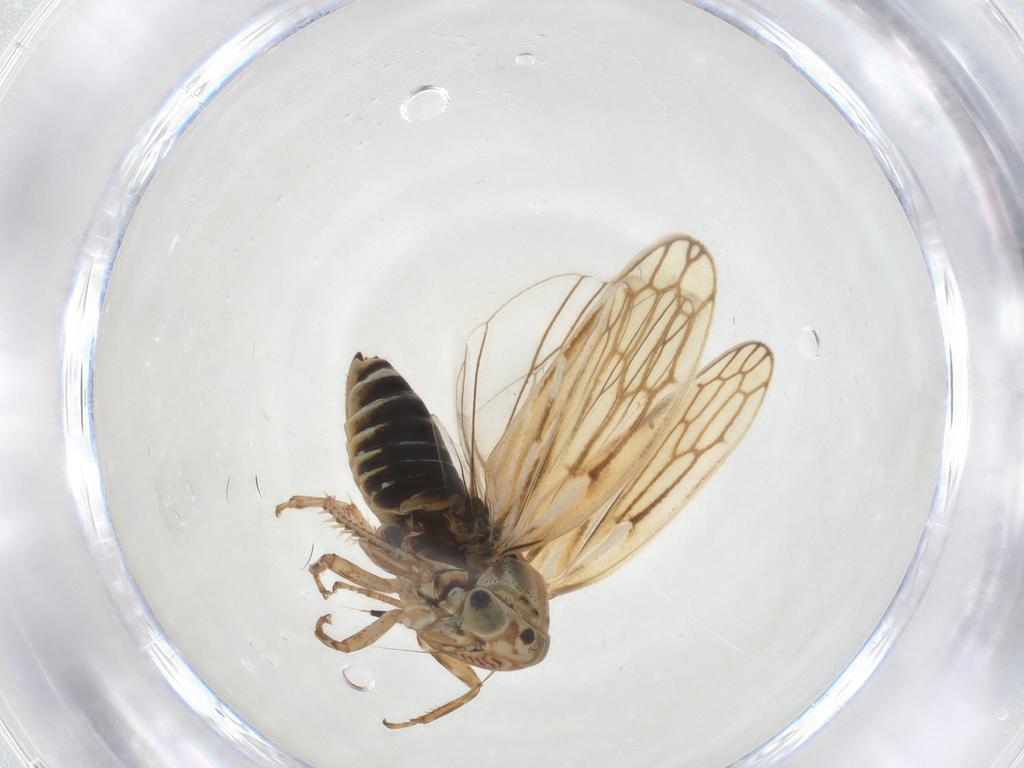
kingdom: Animalia
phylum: Arthropoda
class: Insecta
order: Hemiptera
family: Cicadellidae
